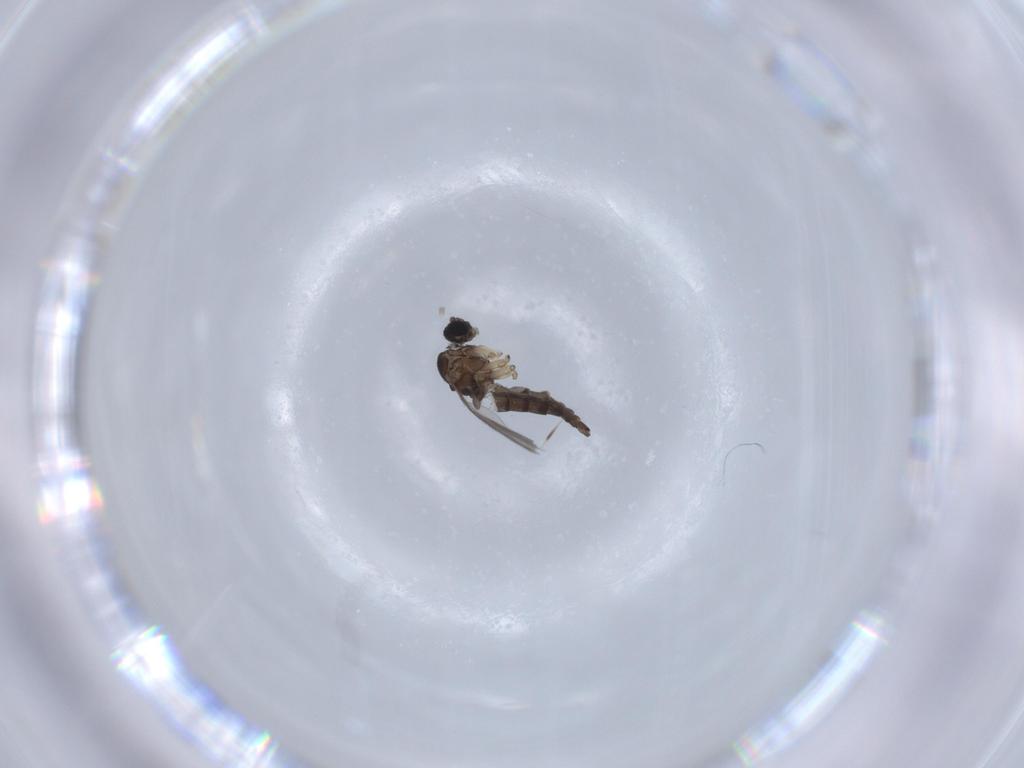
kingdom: Animalia
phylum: Arthropoda
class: Insecta
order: Diptera
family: Sciaridae
